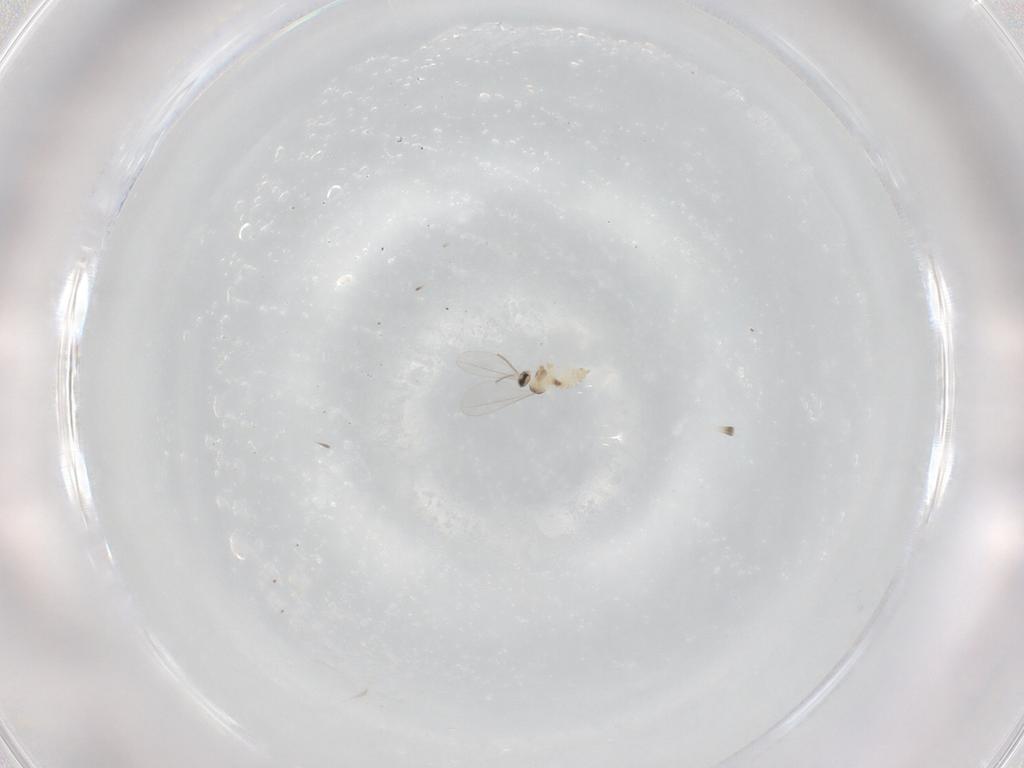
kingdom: Animalia
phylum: Arthropoda
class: Insecta
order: Diptera
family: Cecidomyiidae
